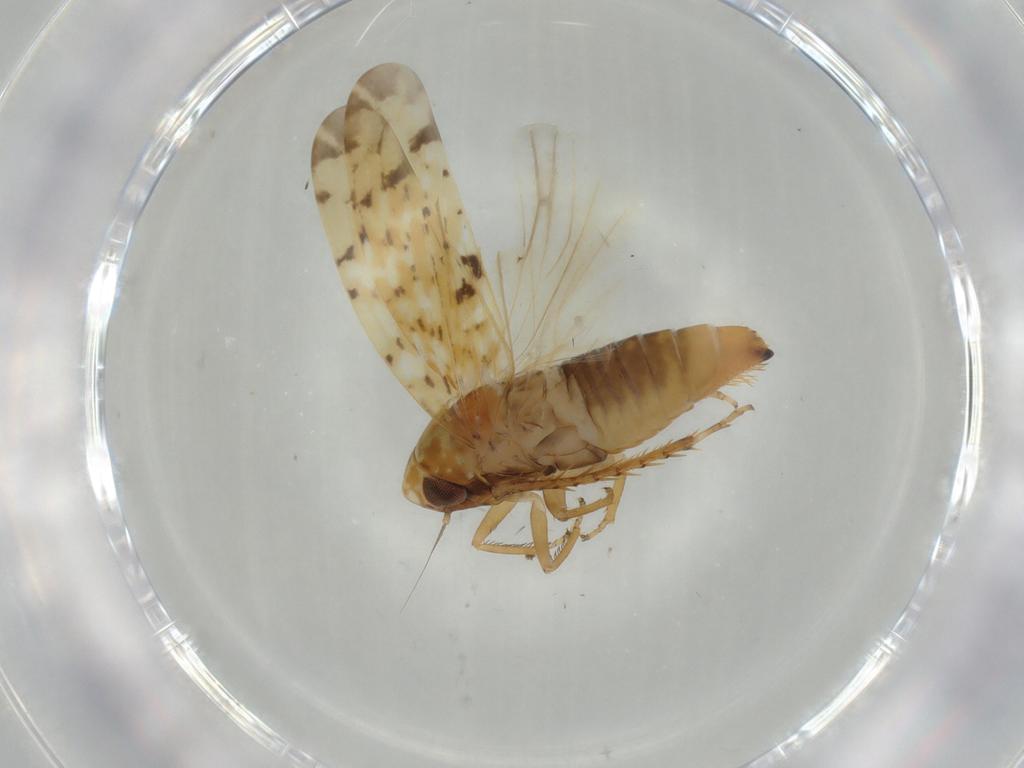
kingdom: Animalia
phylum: Arthropoda
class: Insecta
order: Hemiptera
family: Cicadellidae
